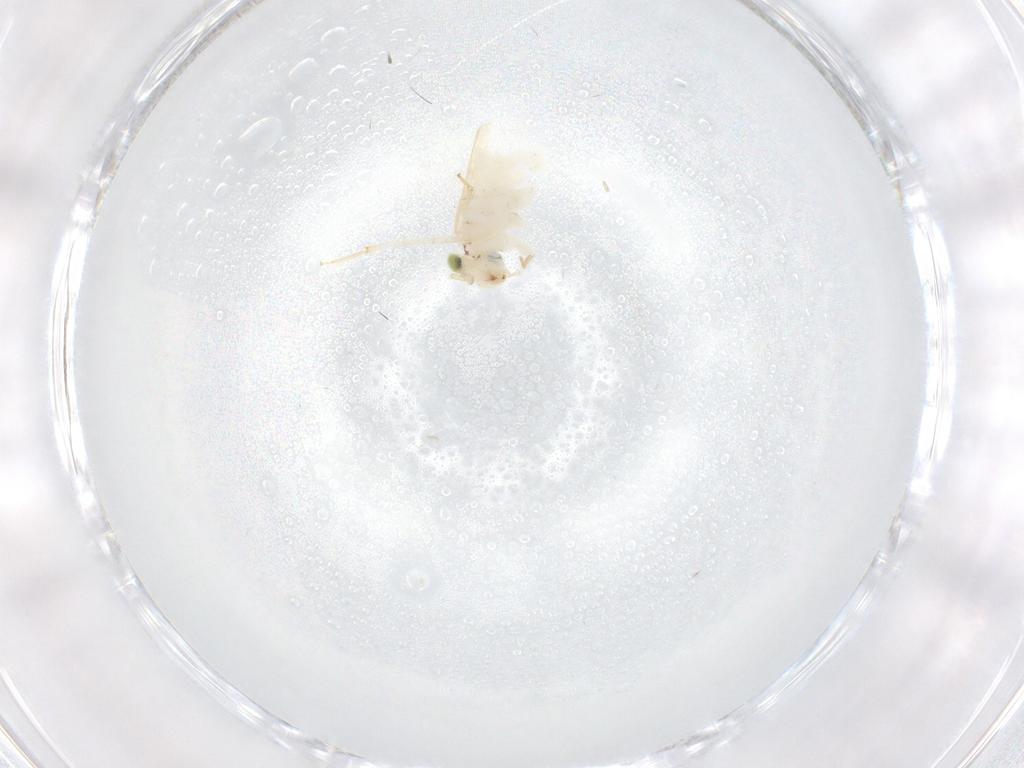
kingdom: Animalia
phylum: Arthropoda
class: Insecta
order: Psocodea
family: Lepidopsocidae
